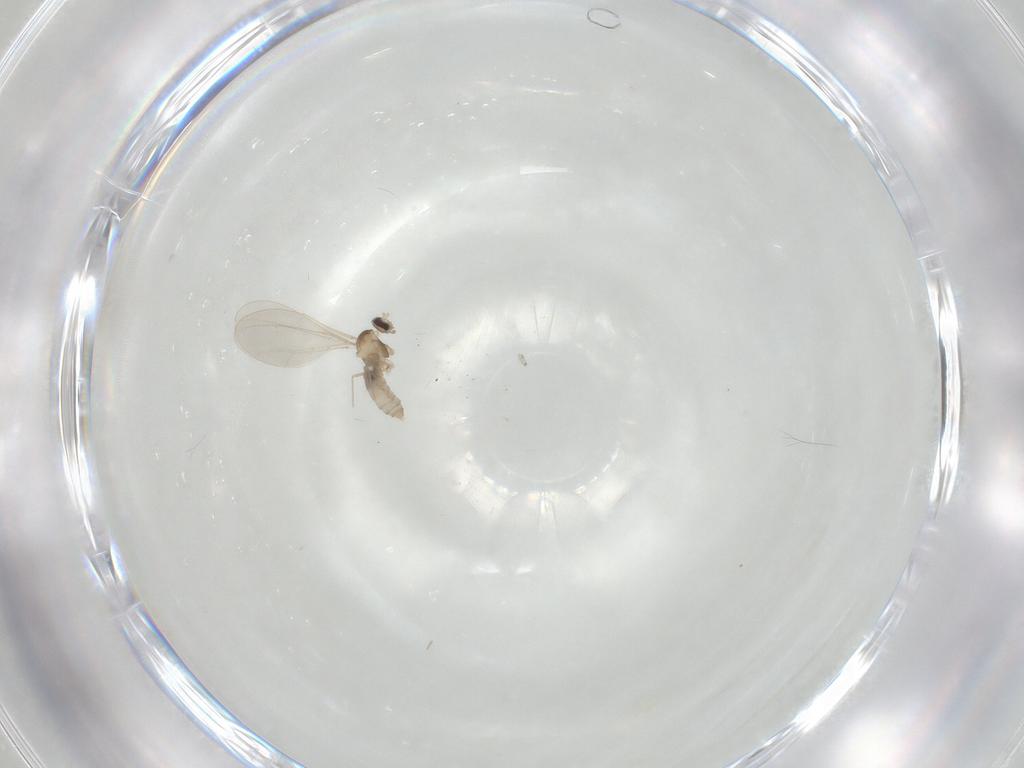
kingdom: Animalia
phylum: Arthropoda
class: Insecta
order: Diptera
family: Cecidomyiidae
